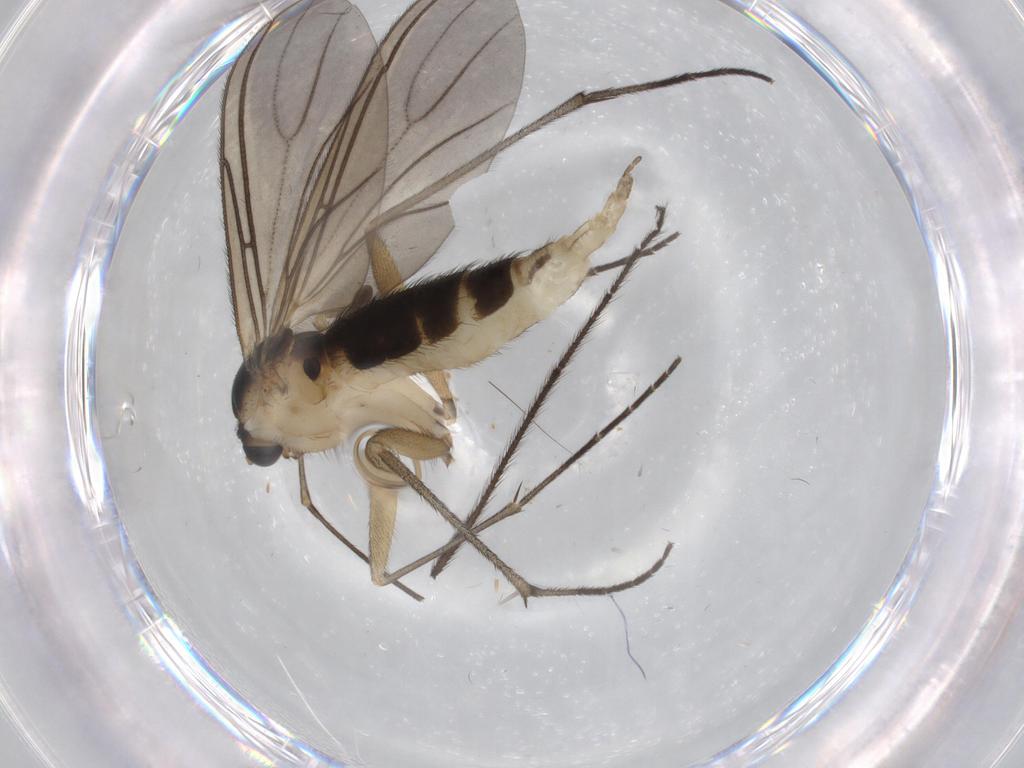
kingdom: Animalia
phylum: Arthropoda
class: Insecta
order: Diptera
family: Sciaridae
